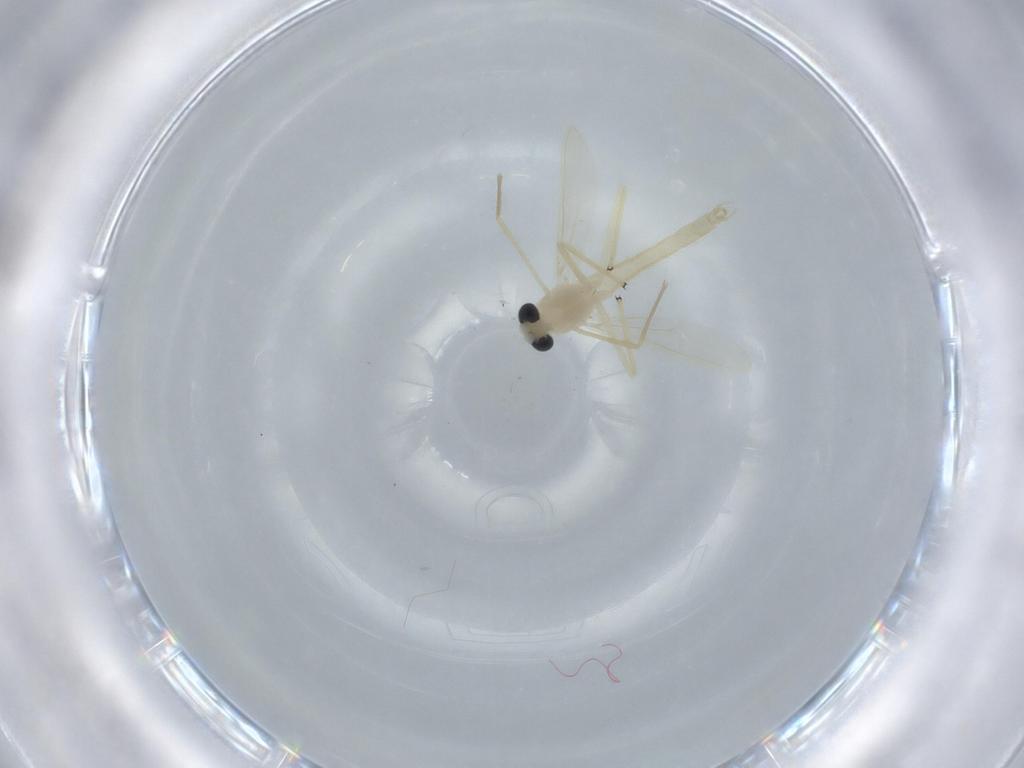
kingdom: Animalia
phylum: Arthropoda
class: Insecta
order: Diptera
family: Chironomidae
